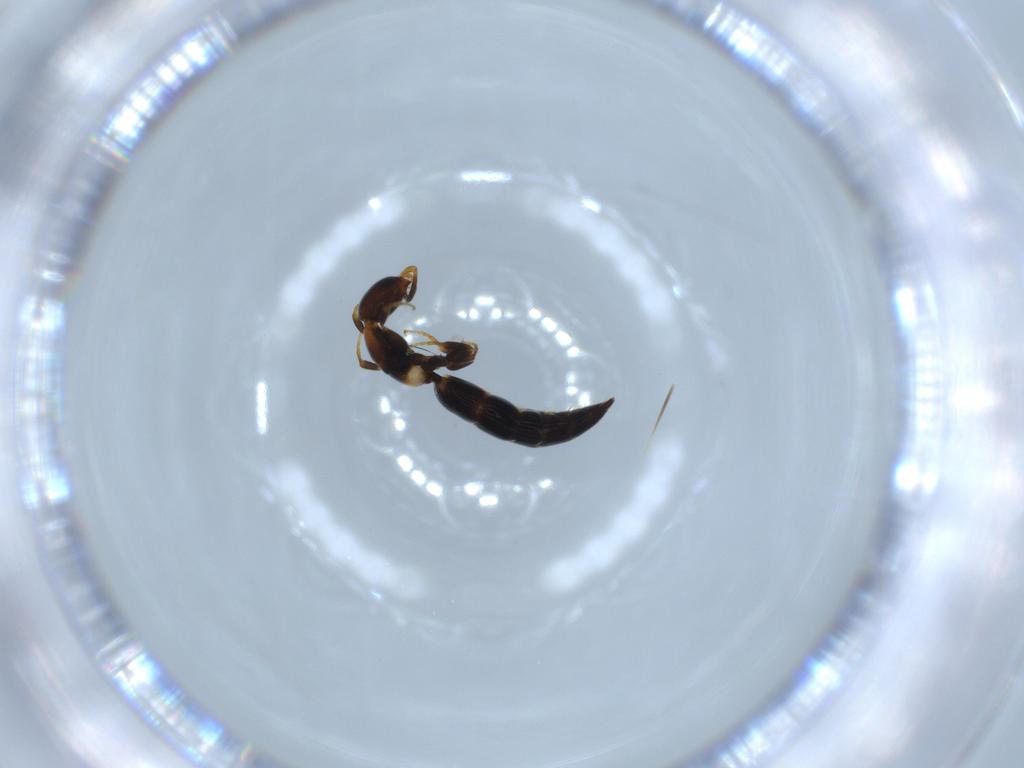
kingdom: Animalia
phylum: Arthropoda
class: Insecta
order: Hymenoptera
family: Bethylidae
